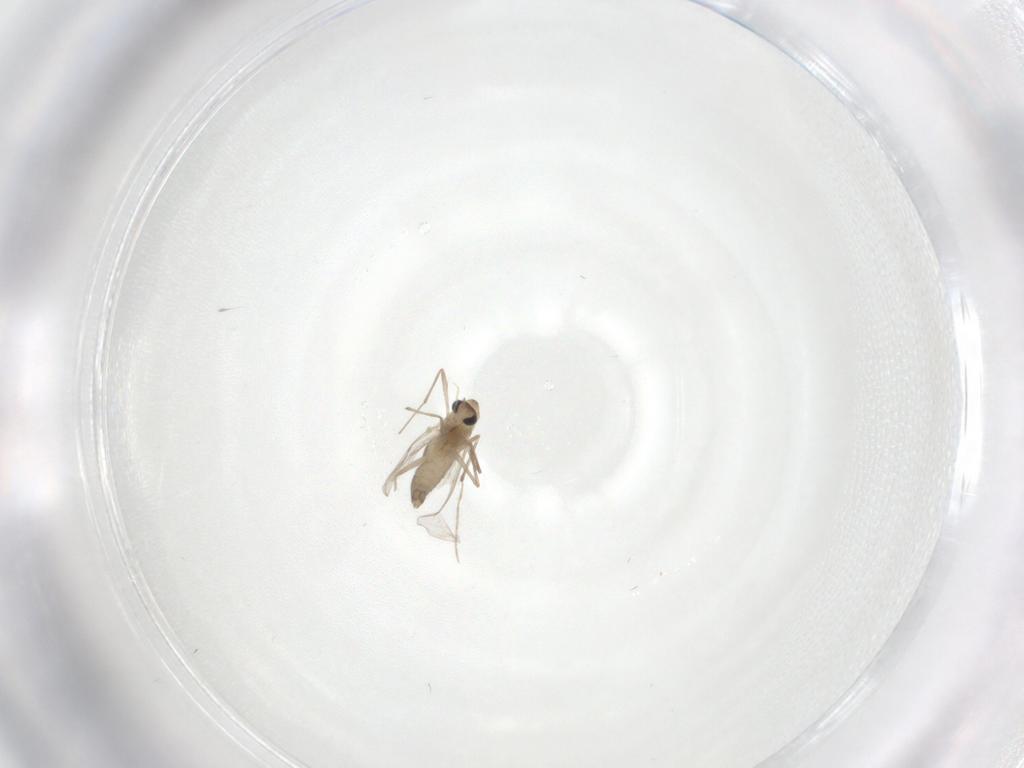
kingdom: Animalia
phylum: Arthropoda
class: Insecta
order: Diptera
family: Chironomidae
